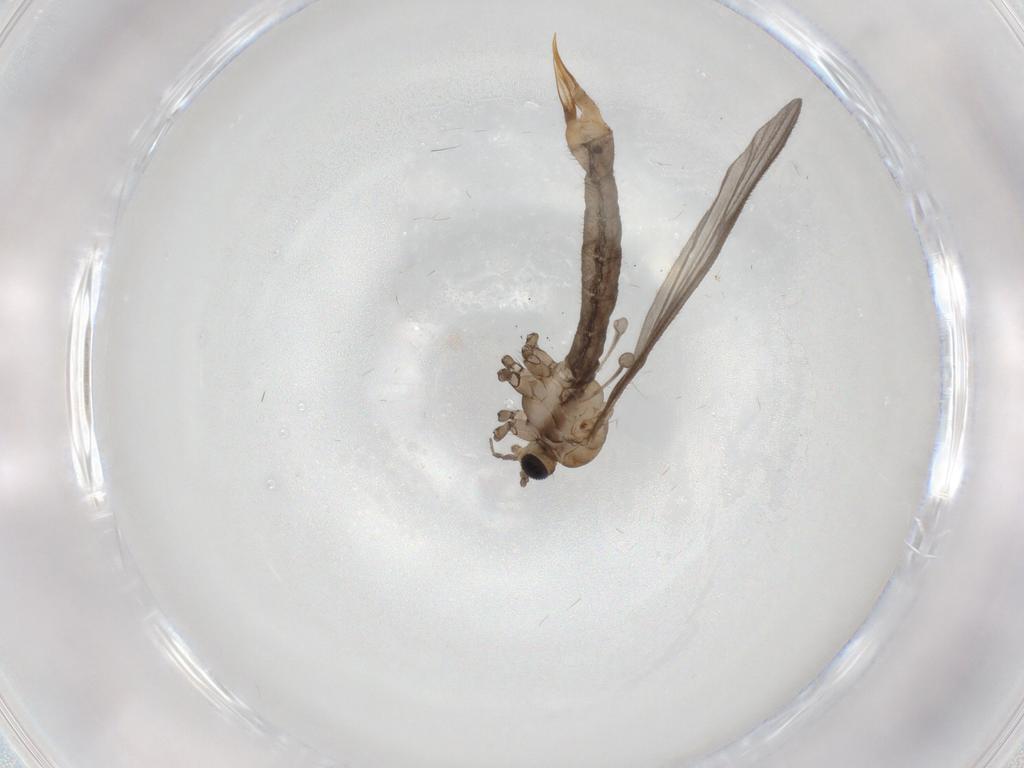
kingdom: Animalia
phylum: Arthropoda
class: Insecta
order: Diptera
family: Limoniidae
